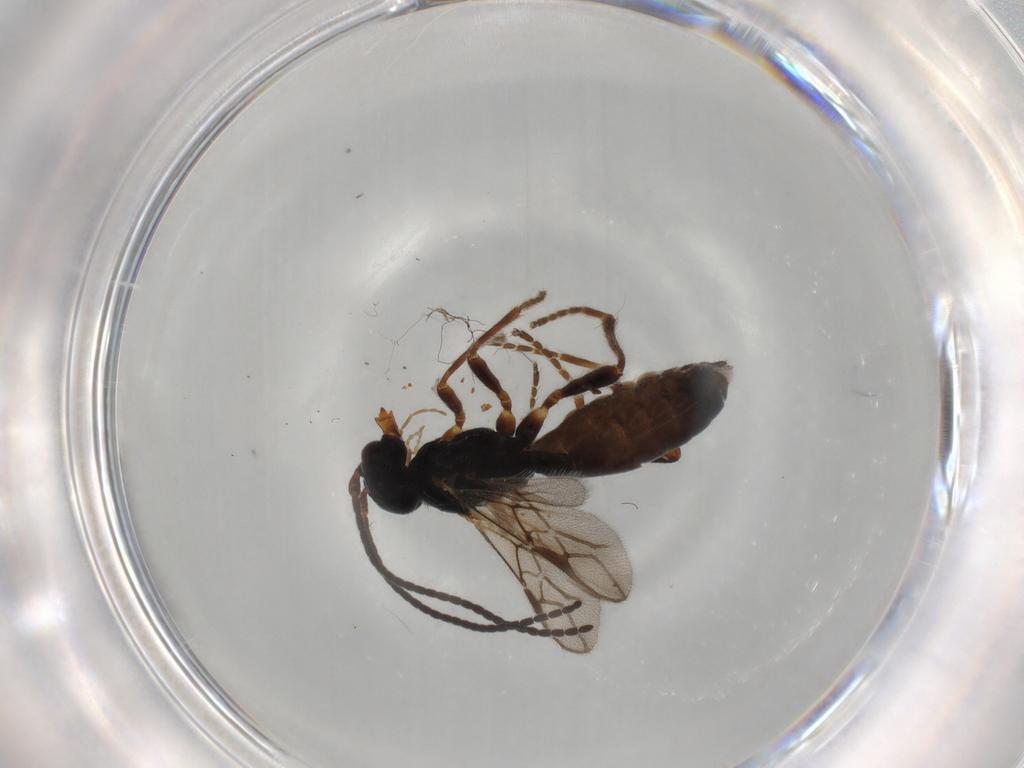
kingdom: Animalia
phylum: Arthropoda
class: Insecta
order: Hymenoptera
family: Braconidae
